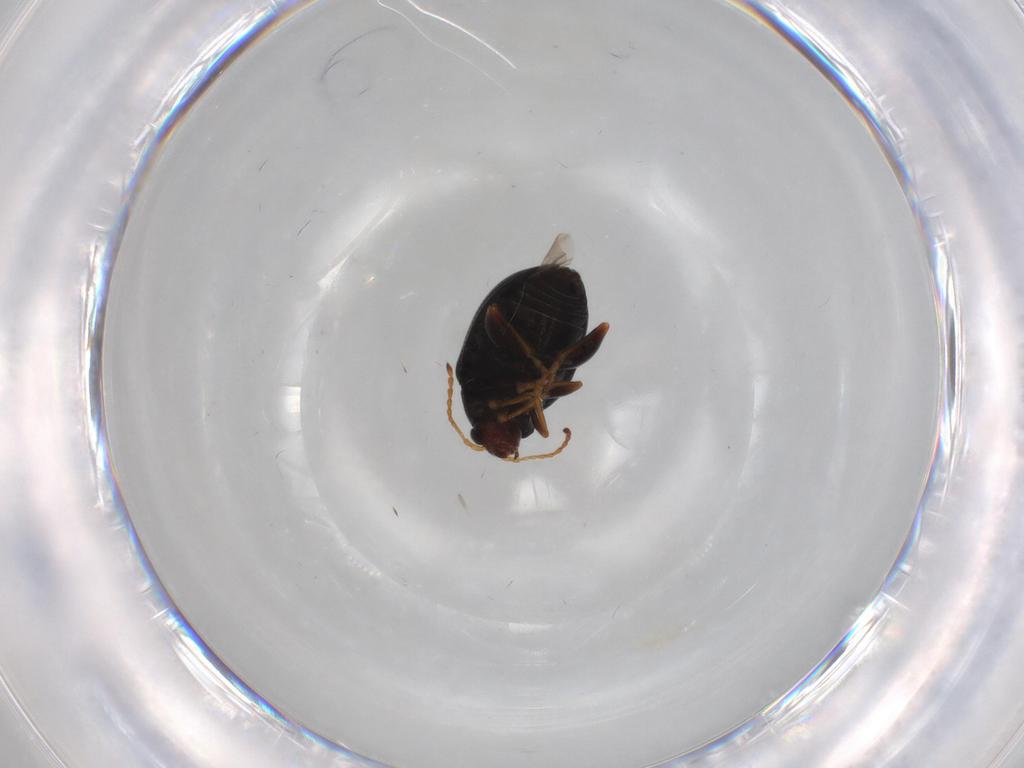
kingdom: Animalia
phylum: Arthropoda
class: Insecta
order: Coleoptera
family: Chrysomelidae
